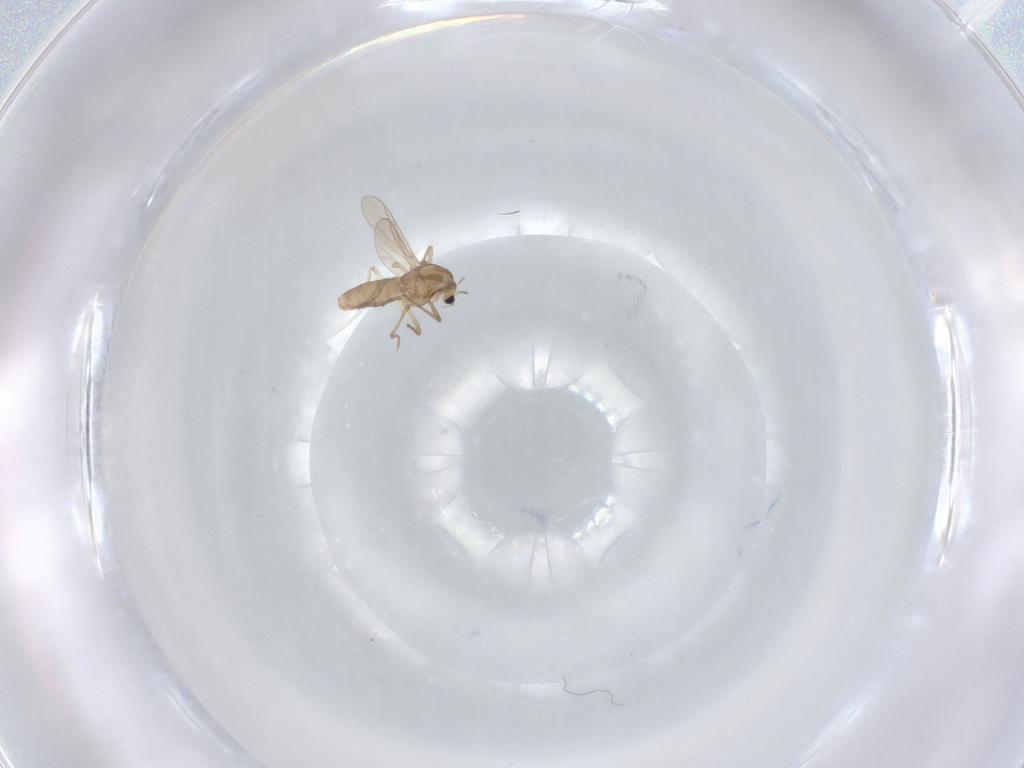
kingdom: Animalia
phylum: Arthropoda
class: Insecta
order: Diptera
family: Chironomidae
